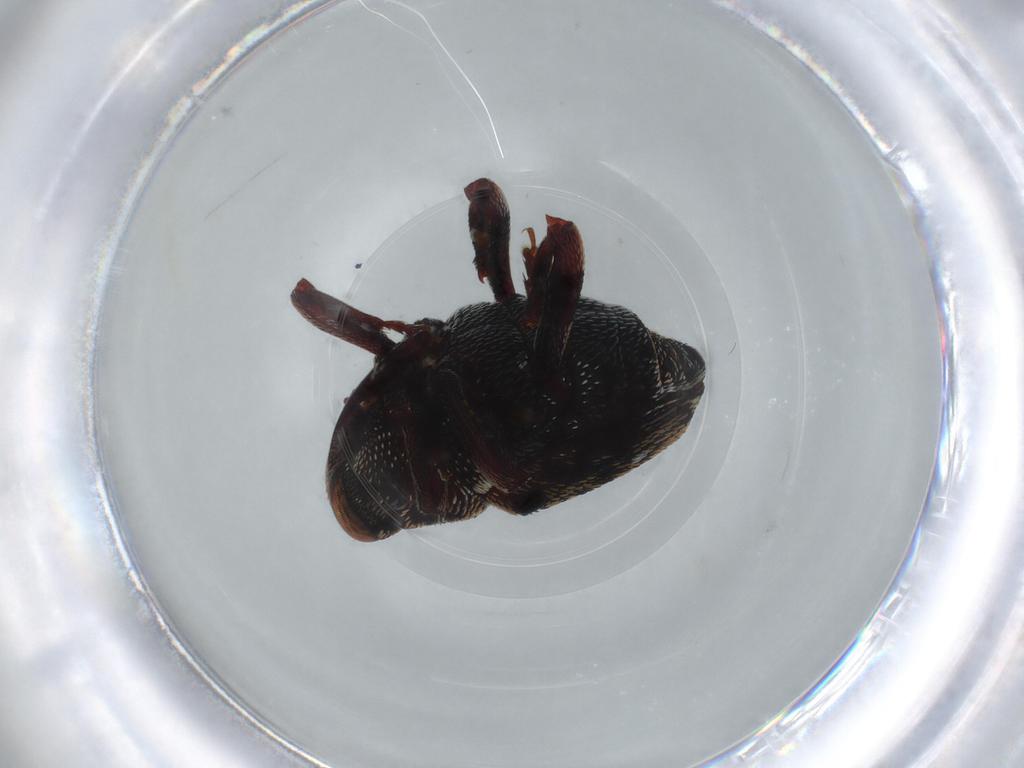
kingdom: Animalia
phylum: Arthropoda
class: Insecta
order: Coleoptera
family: Curculionidae
